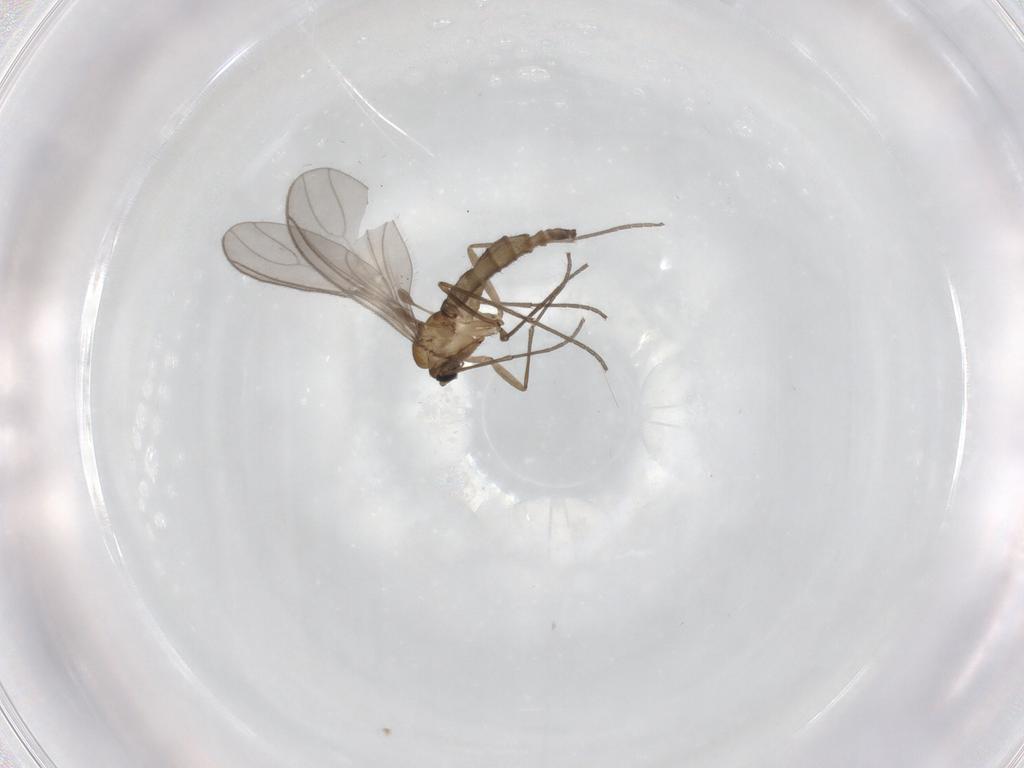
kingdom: Animalia
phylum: Arthropoda
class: Insecta
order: Diptera
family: Sciaridae
